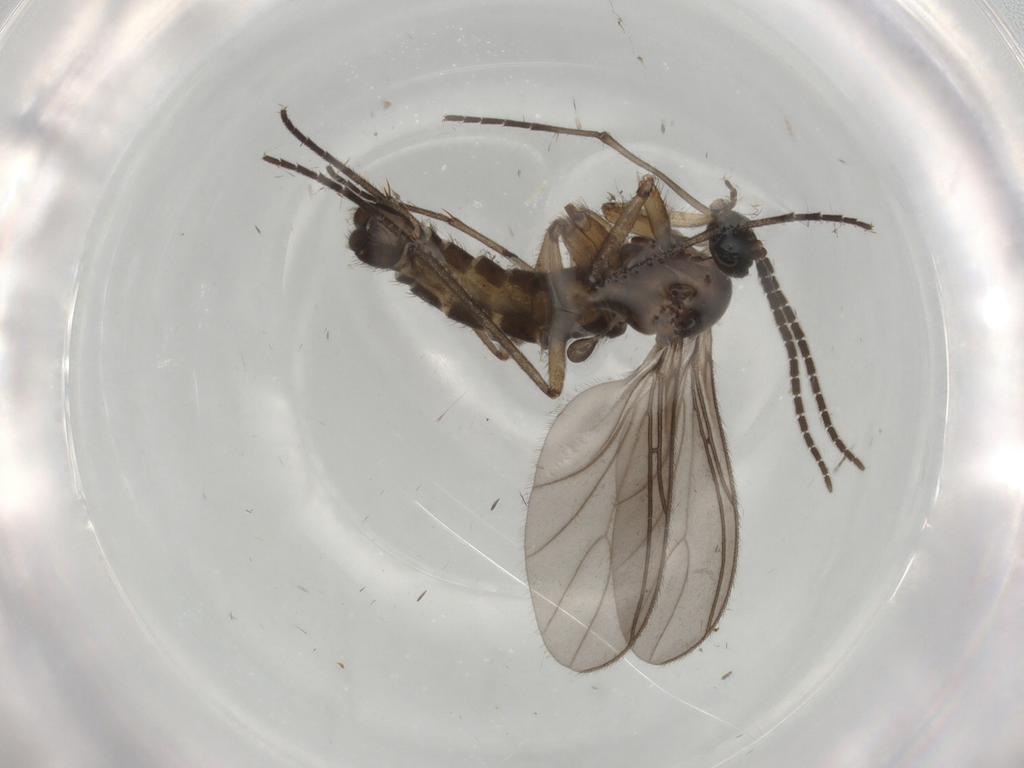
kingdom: Animalia
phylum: Arthropoda
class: Insecta
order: Diptera
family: Sciaridae
